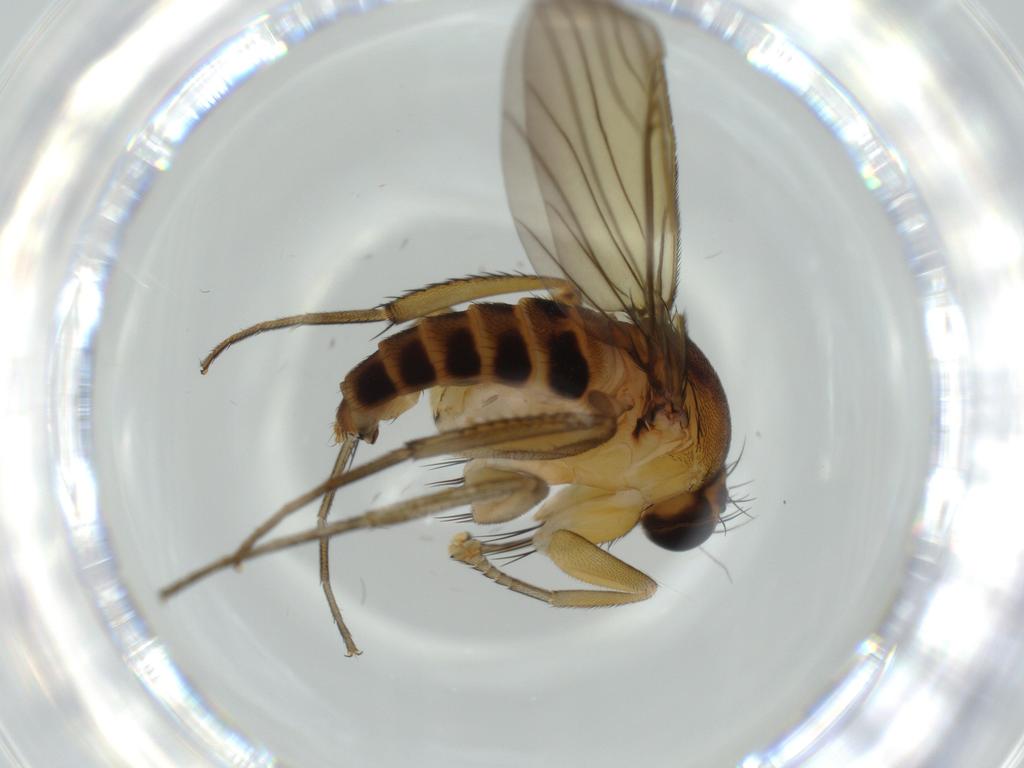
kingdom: Animalia
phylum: Arthropoda
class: Insecta
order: Diptera
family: Phoridae
